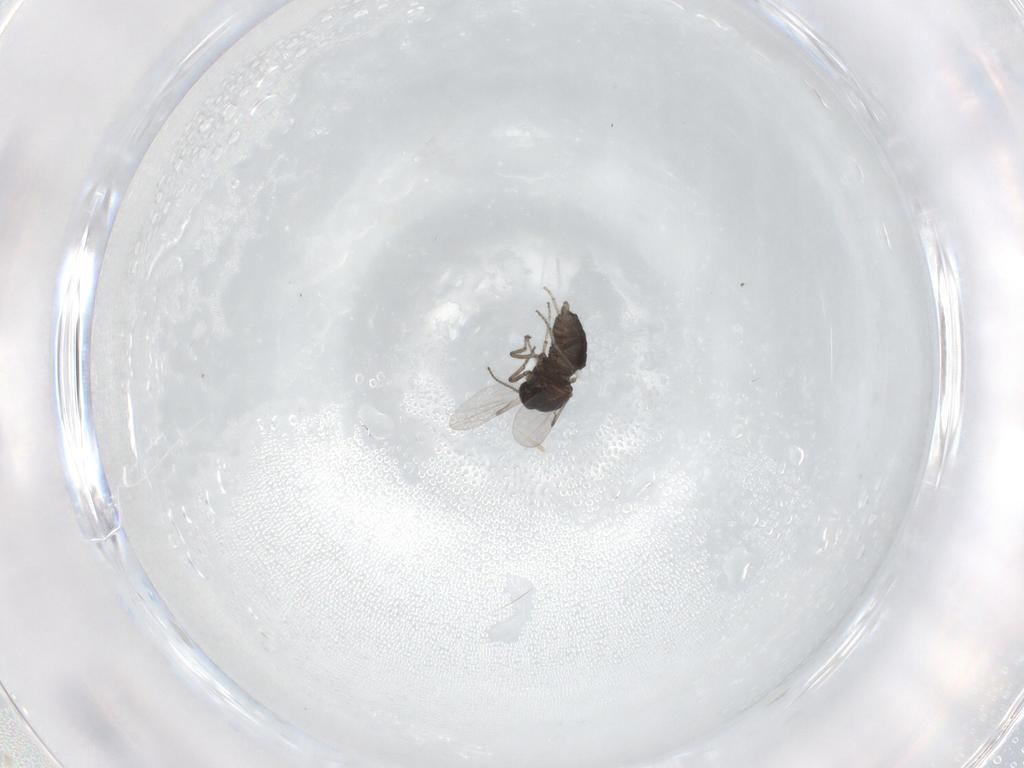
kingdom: Animalia
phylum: Arthropoda
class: Insecta
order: Diptera
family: Ceratopogonidae
